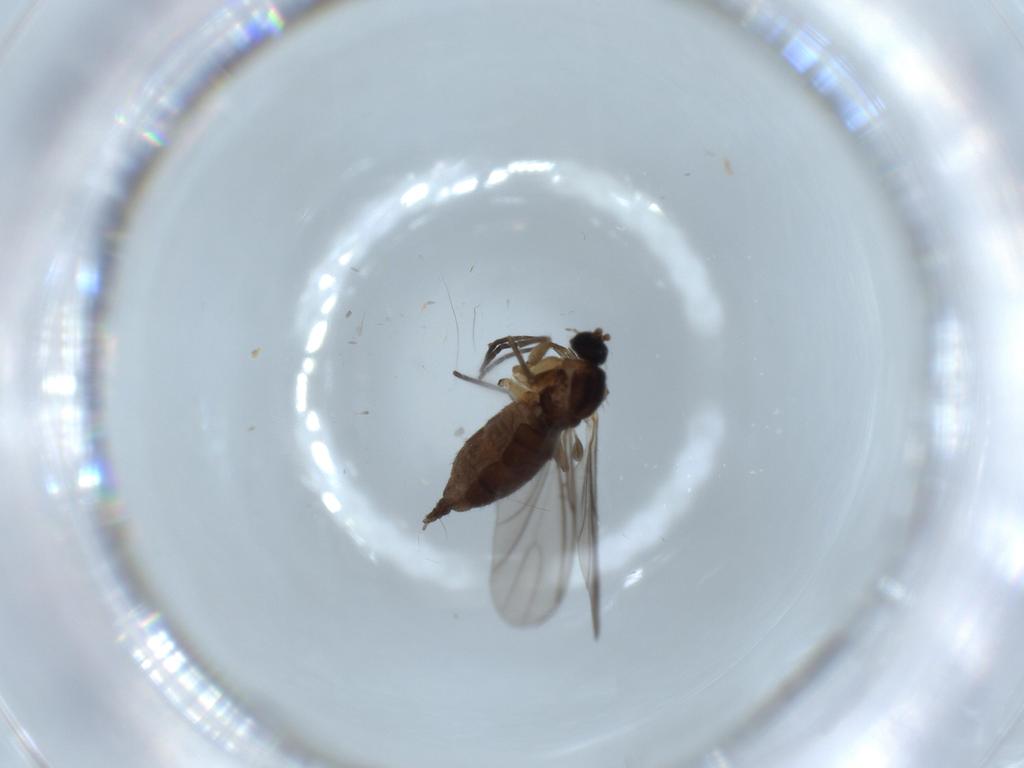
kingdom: Animalia
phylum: Arthropoda
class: Insecta
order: Diptera
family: Sciaridae
